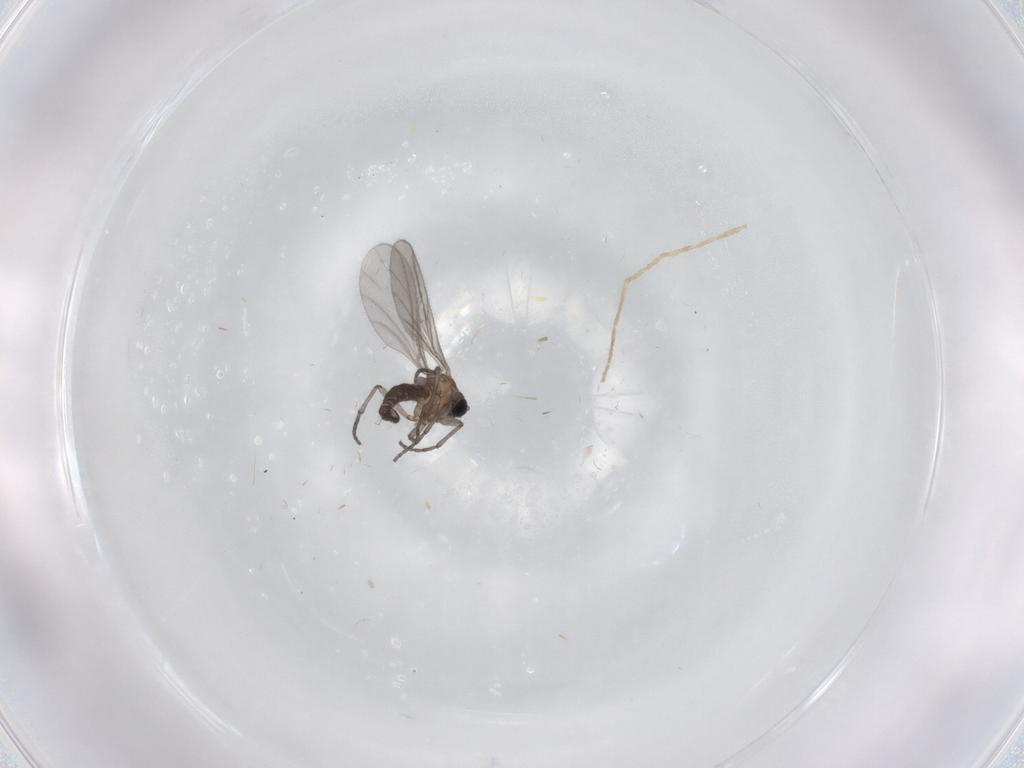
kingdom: Animalia
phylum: Arthropoda
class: Insecta
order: Diptera
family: Sciaridae
